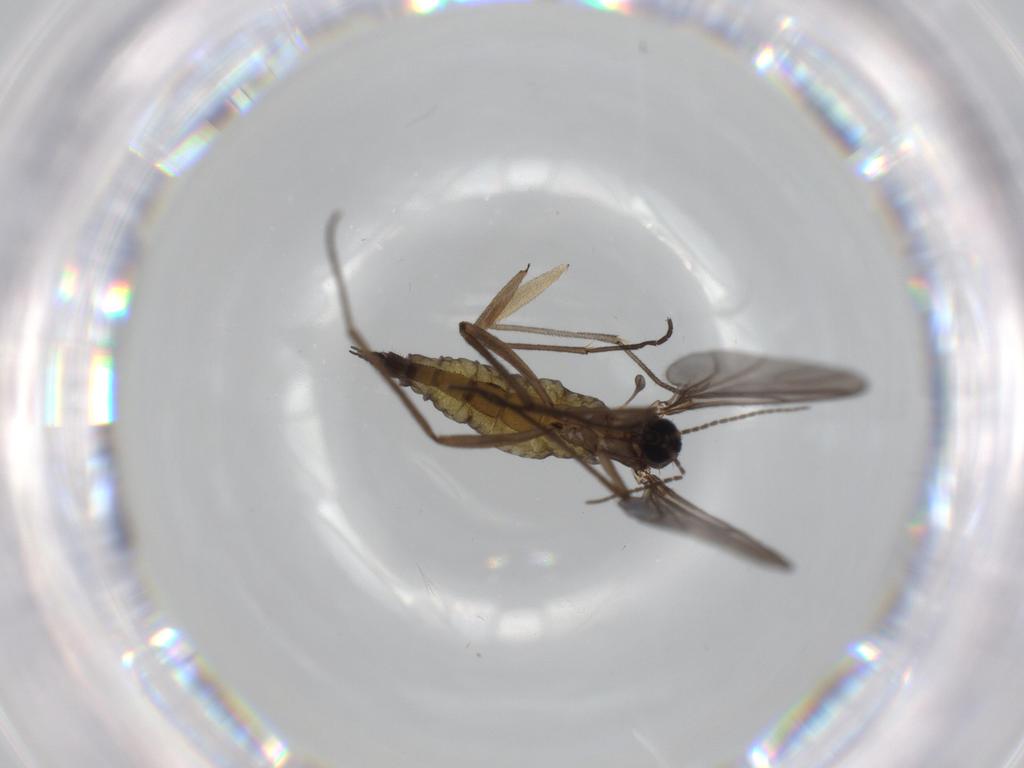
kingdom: Animalia
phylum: Arthropoda
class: Insecta
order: Diptera
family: Sciaridae
